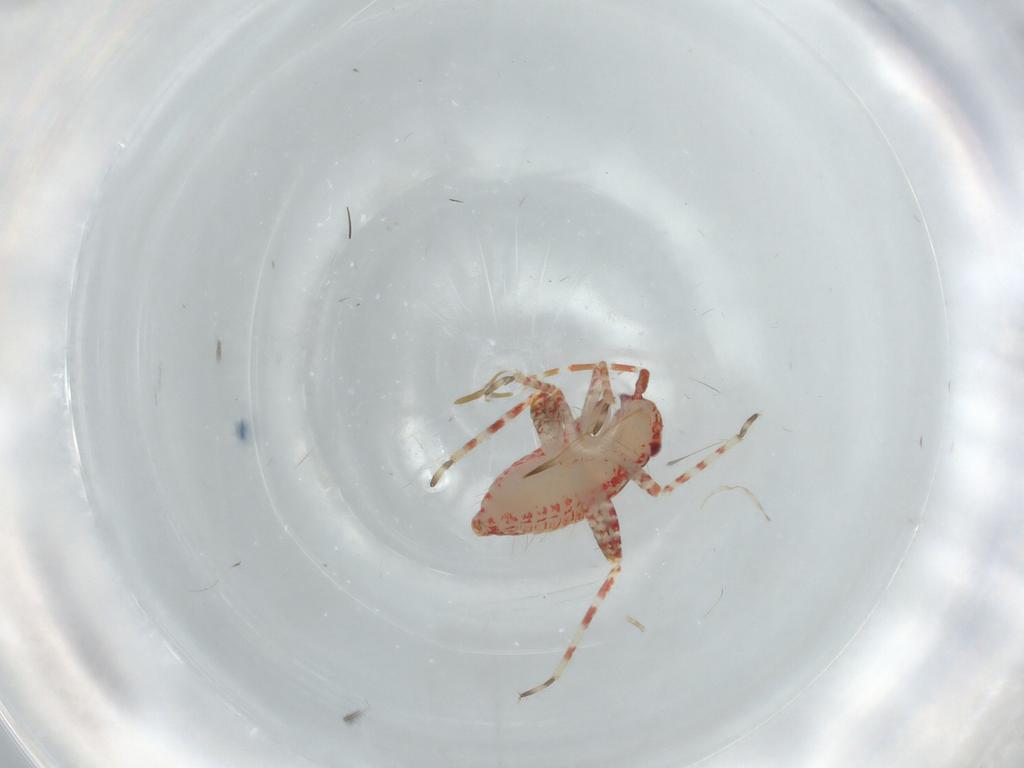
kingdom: Animalia
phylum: Arthropoda
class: Insecta
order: Hemiptera
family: Miridae
